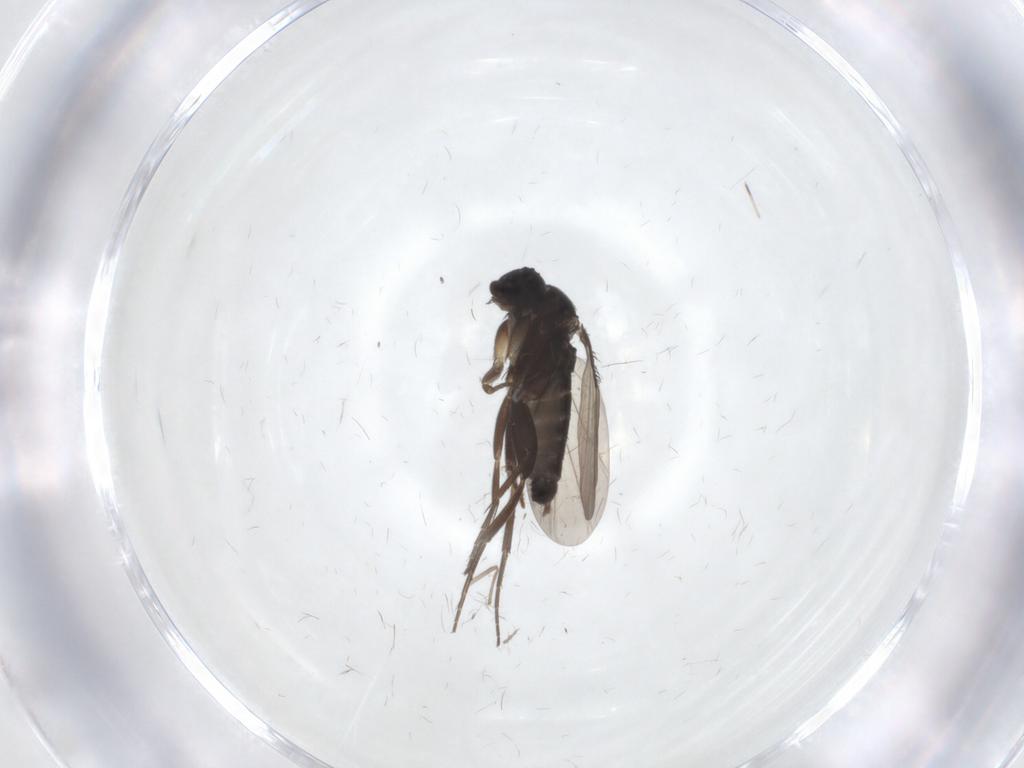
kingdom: Animalia
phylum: Arthropoda
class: Insecta
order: Diptera
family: Phoridae
